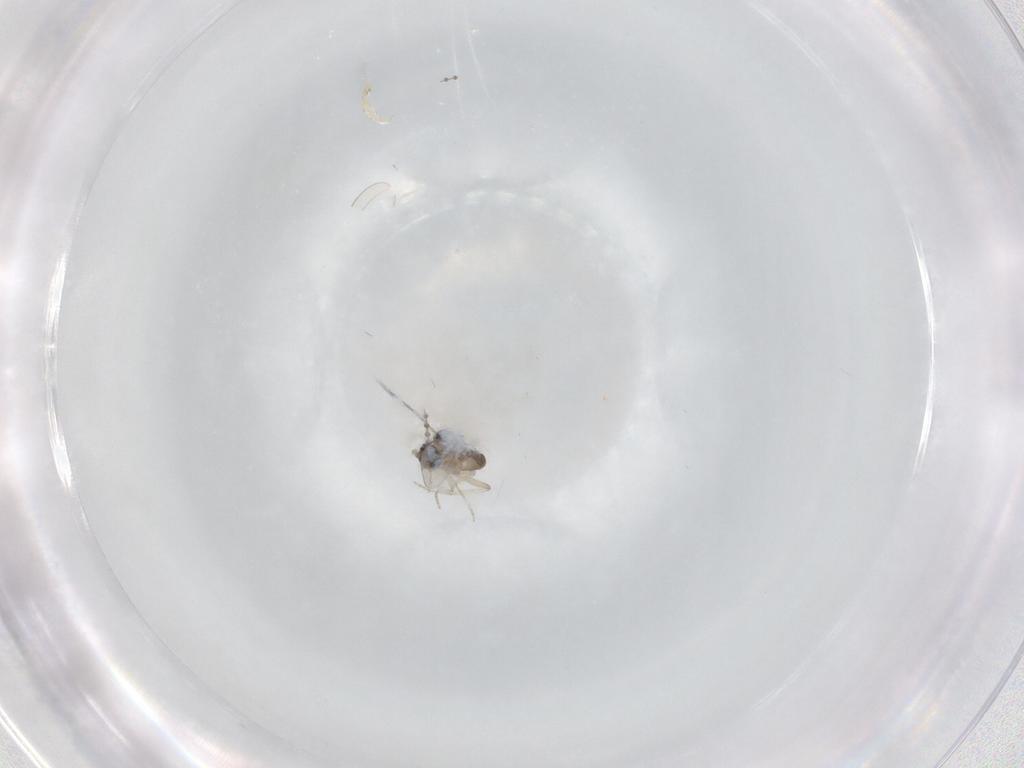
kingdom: Animalia
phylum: Arthropoda
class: Insecta
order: Diptera
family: Cecidomyiidae
